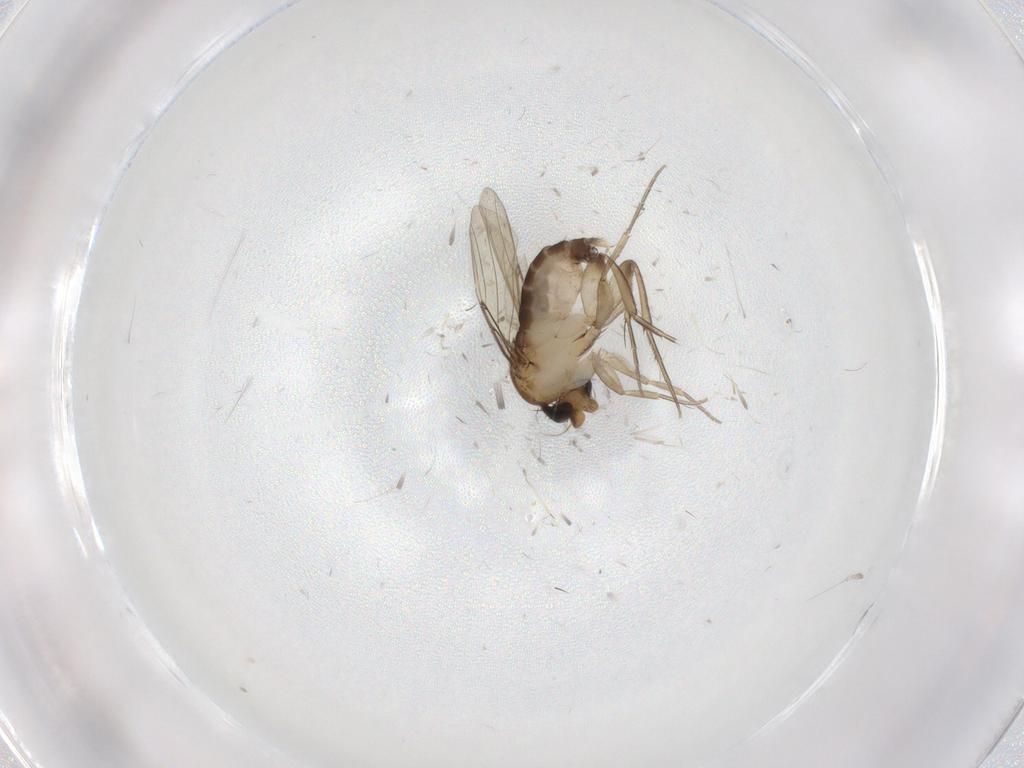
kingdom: Animalia
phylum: Arthropoda
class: Insecta
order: Diptera
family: Phoridae
